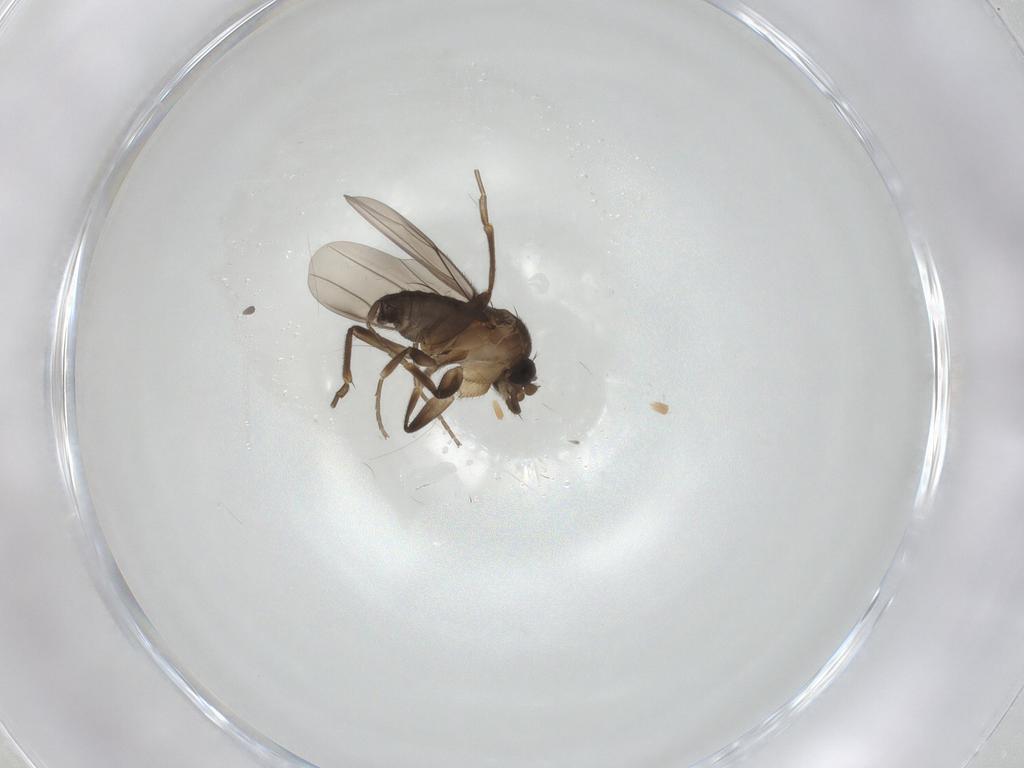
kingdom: Animalia
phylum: Arthropoda
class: Insecta
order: Diptera
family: Phoridae
